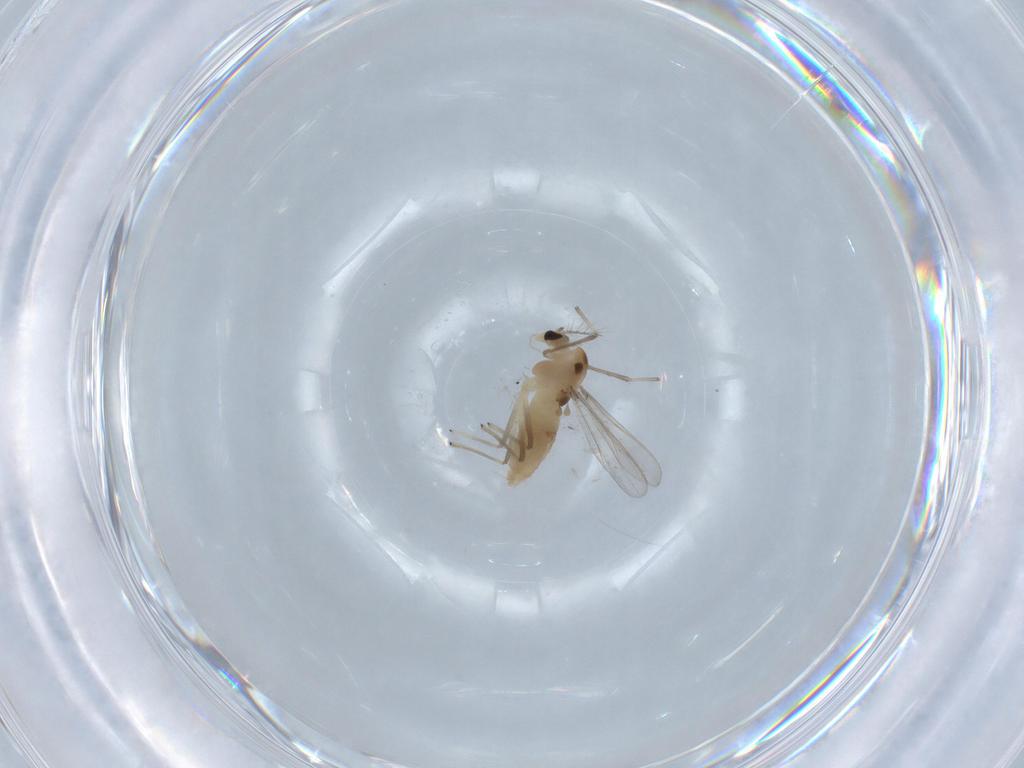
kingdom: Animalia
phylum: Arthropoda
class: Insecta
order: Diptera
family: Chironomidae
